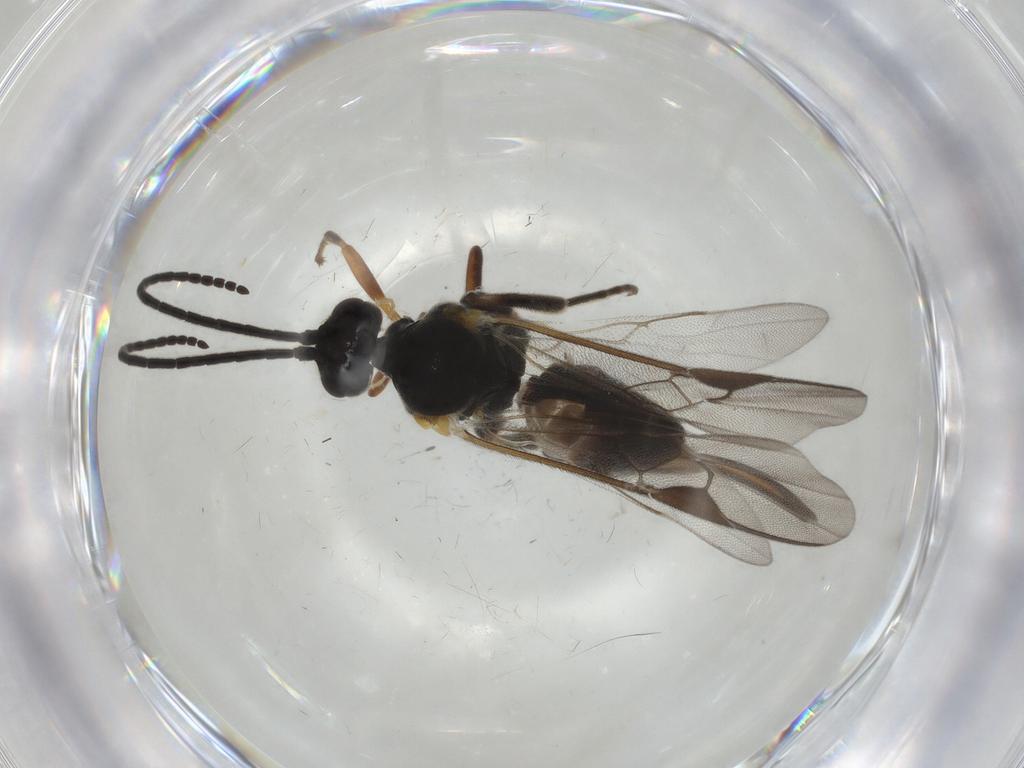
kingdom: Animalia
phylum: Arthropoda
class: Insecta
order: Hymenoptera
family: Braconidae
